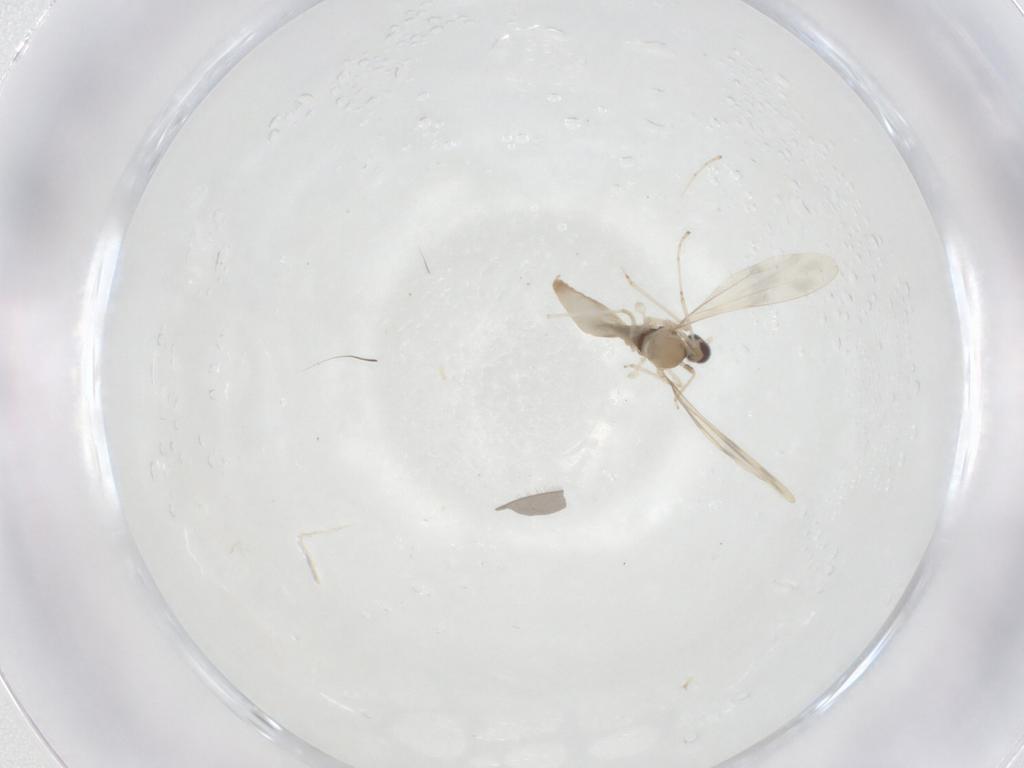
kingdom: Animalia
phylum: Arthropoda
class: Insecta
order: Diptera
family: Cecidomyiidae
